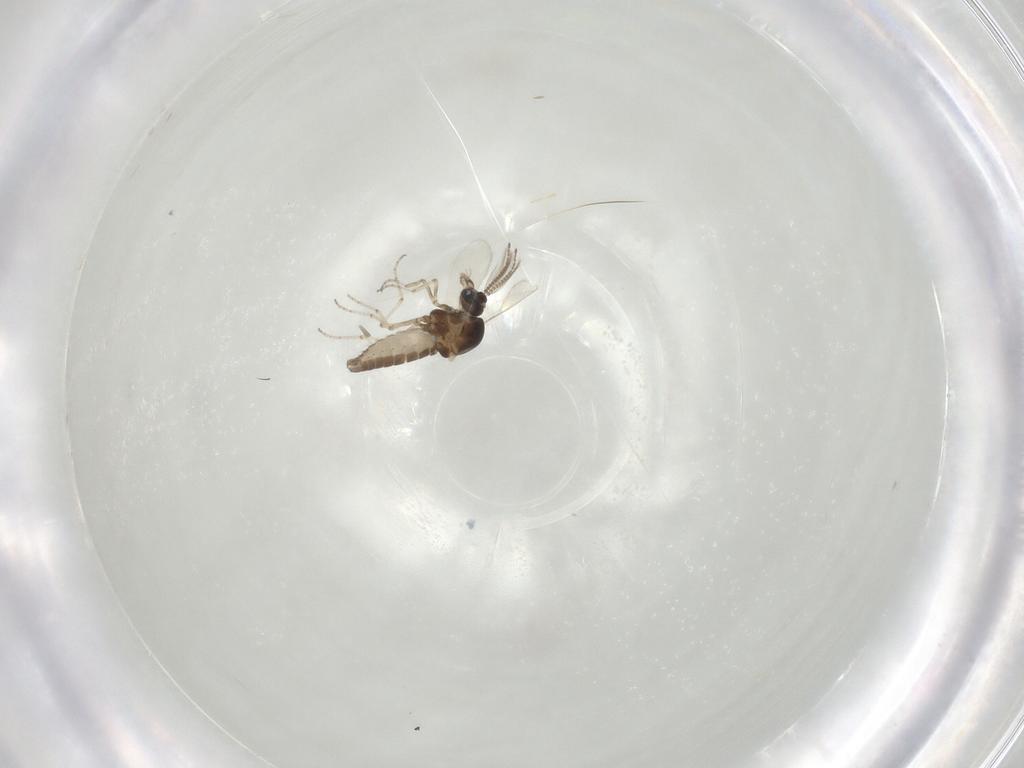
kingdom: Animalia
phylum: Arthropoda
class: Insecta
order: Diptera
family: Ceratopogonidae
